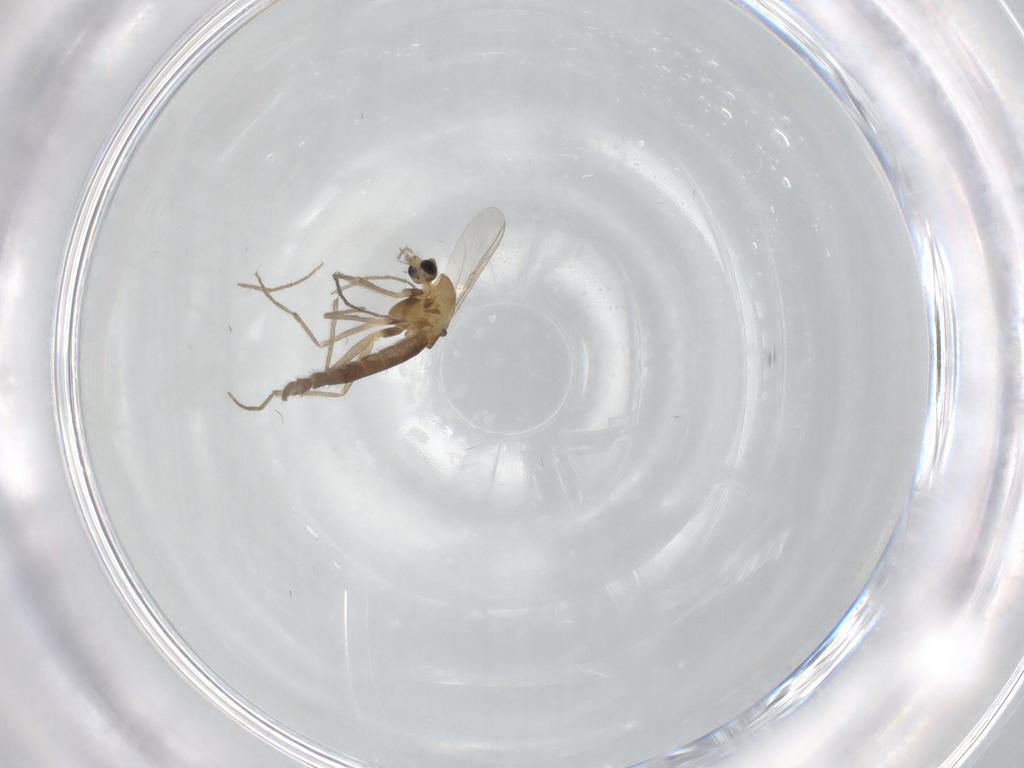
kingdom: Animalia
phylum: Arthropoda
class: Insecta
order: Diptera
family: Chironomidae
